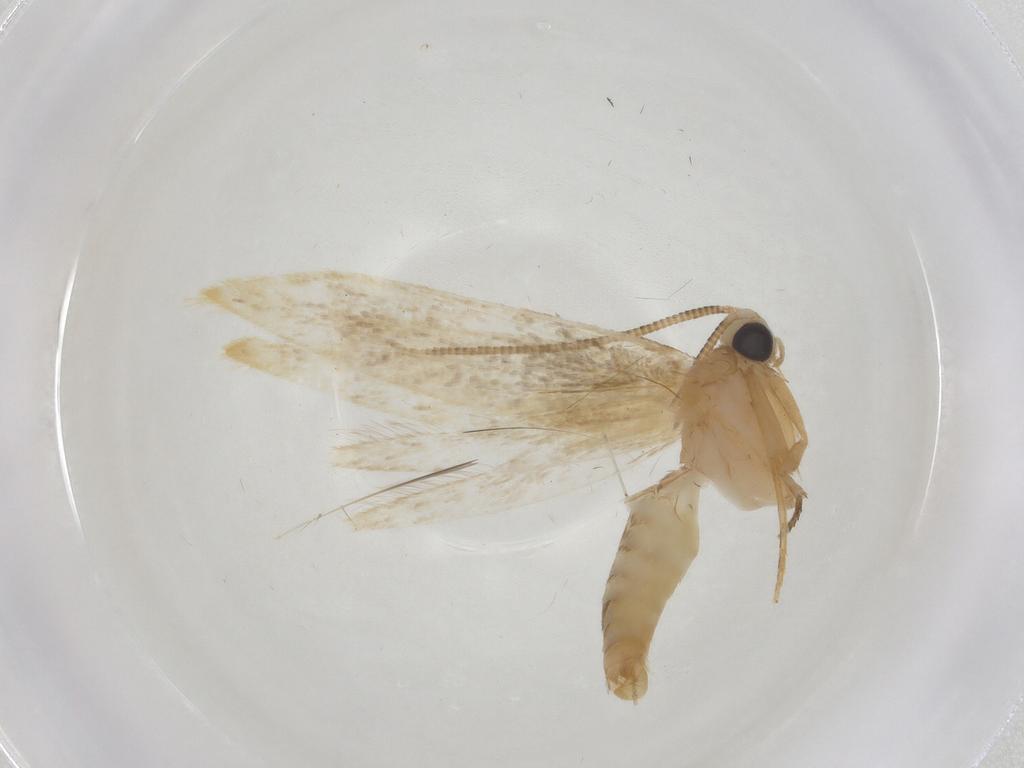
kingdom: Animalia
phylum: Arthropoda
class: Insecta
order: Lepidoptera
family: Tineidae
